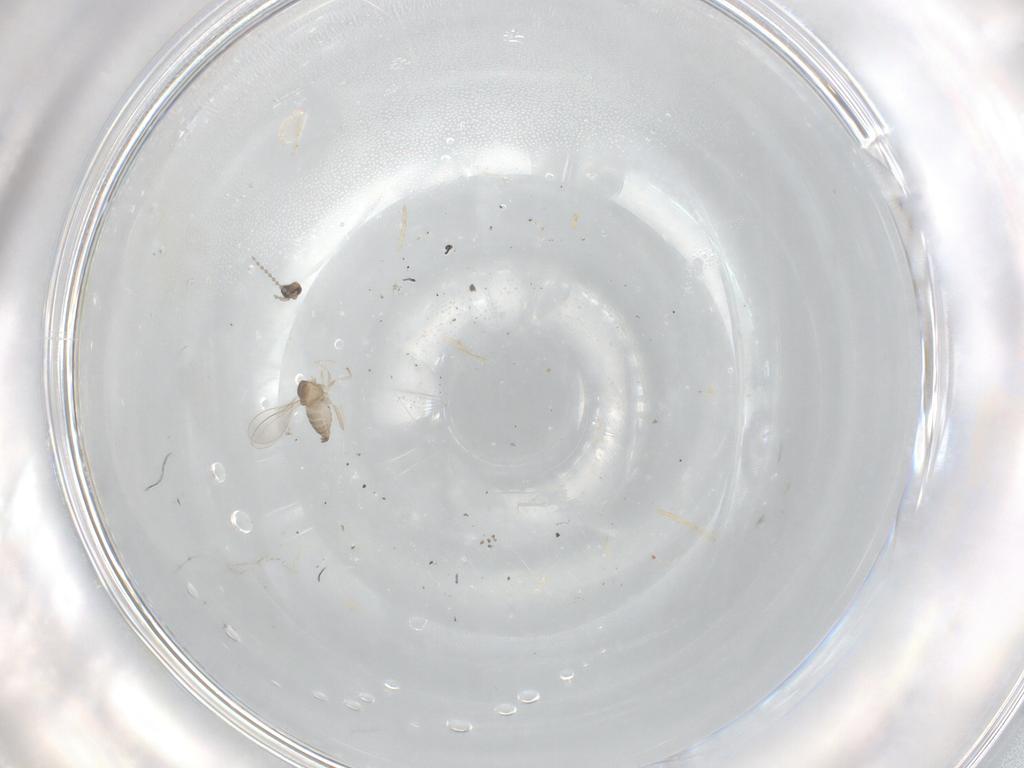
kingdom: Animalia
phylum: Arthropoda
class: Insecta
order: Diptera
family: Cecidomyiidae
